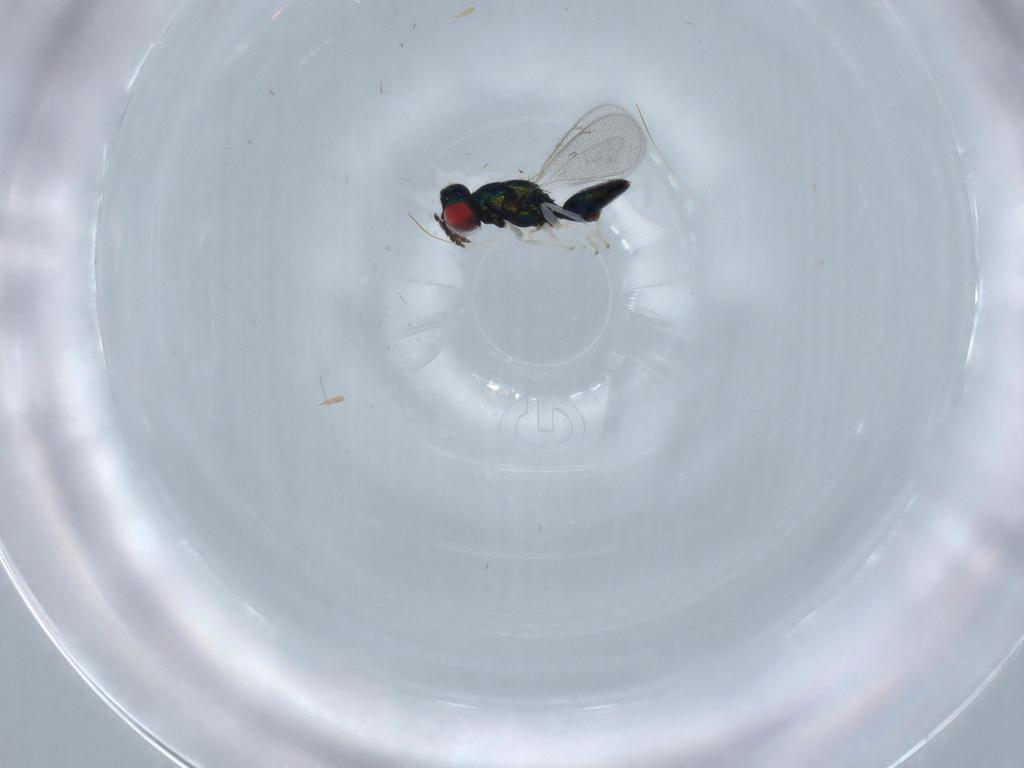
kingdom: Animalia
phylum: Arthropoda
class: Insecta
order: Hymenoptera
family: Eulophidae
